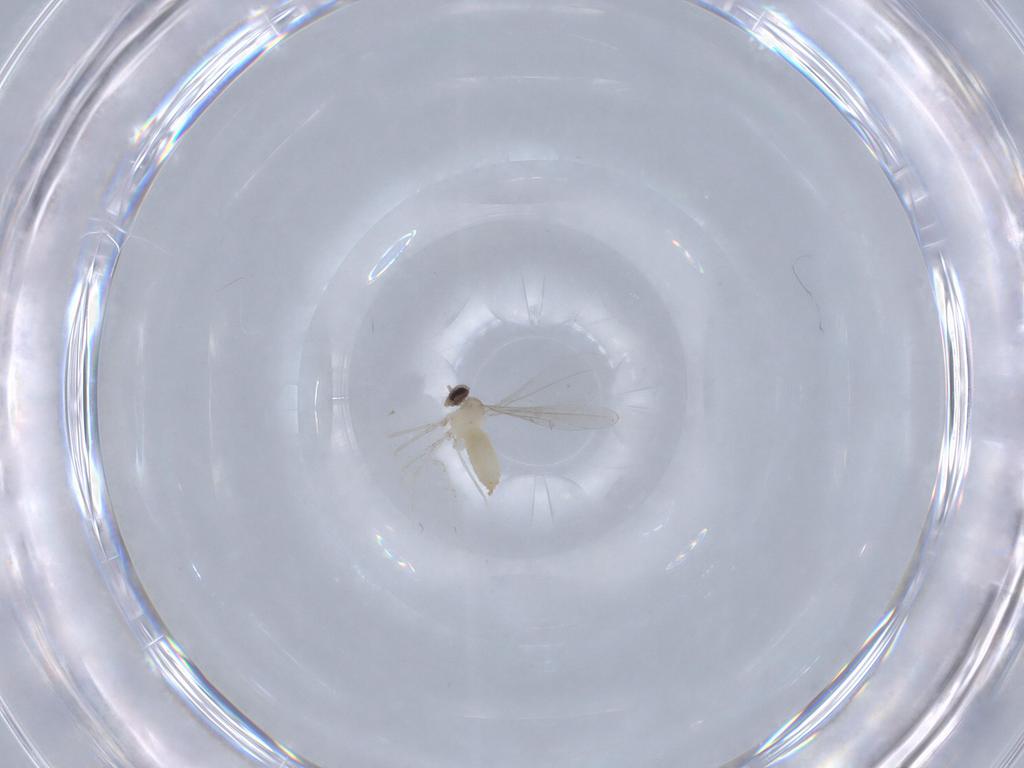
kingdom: Animalia
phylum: Arthropoda
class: Insecta
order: Diptera
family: Cecidomyiidae
